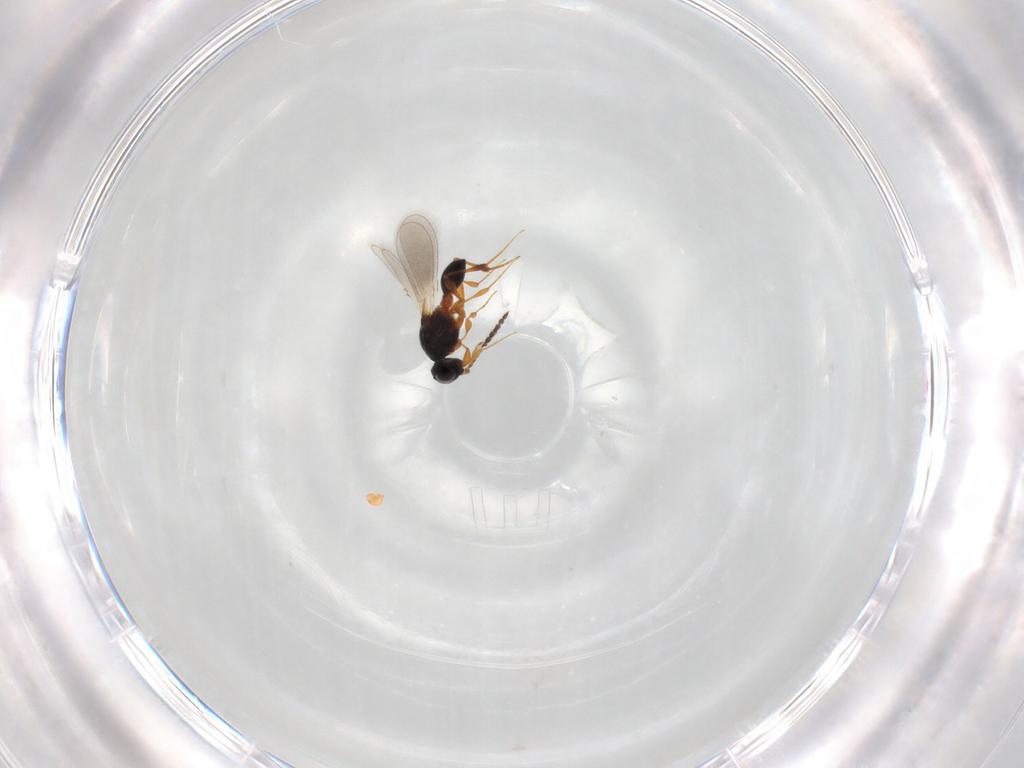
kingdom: Animalia
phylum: Arthropoda
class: Insecta
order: Hymenoptera
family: Platygastridae
